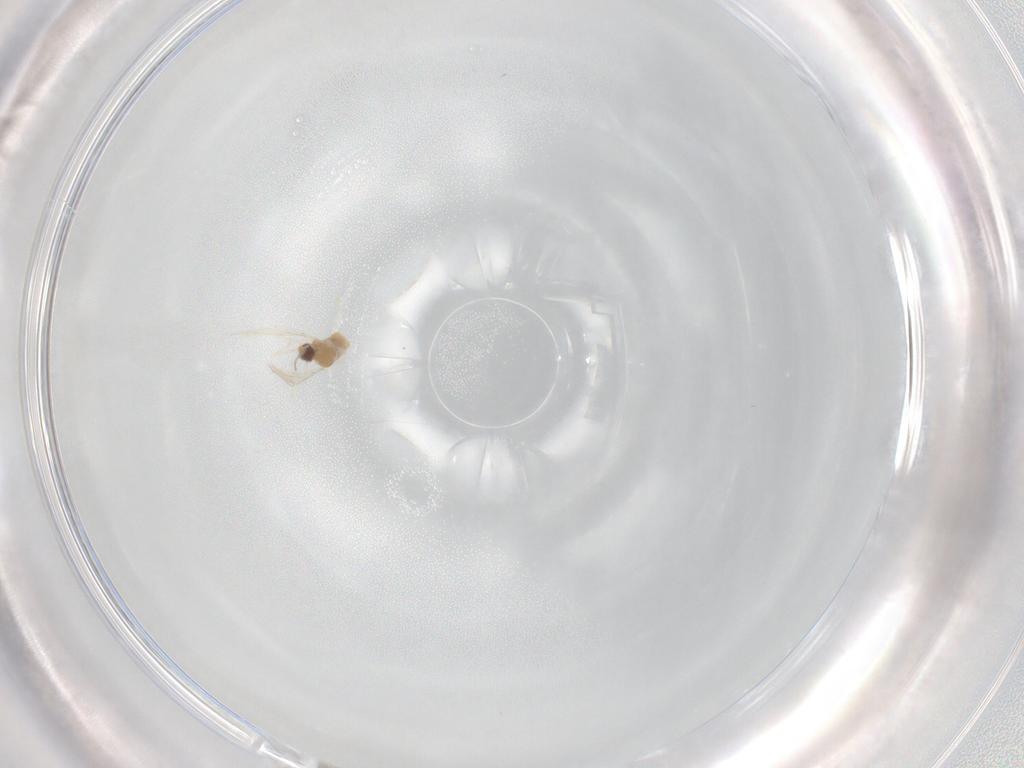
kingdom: Animalia
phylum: Arthropoda
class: Insecta
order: Diptera
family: Cecidomyiidae
